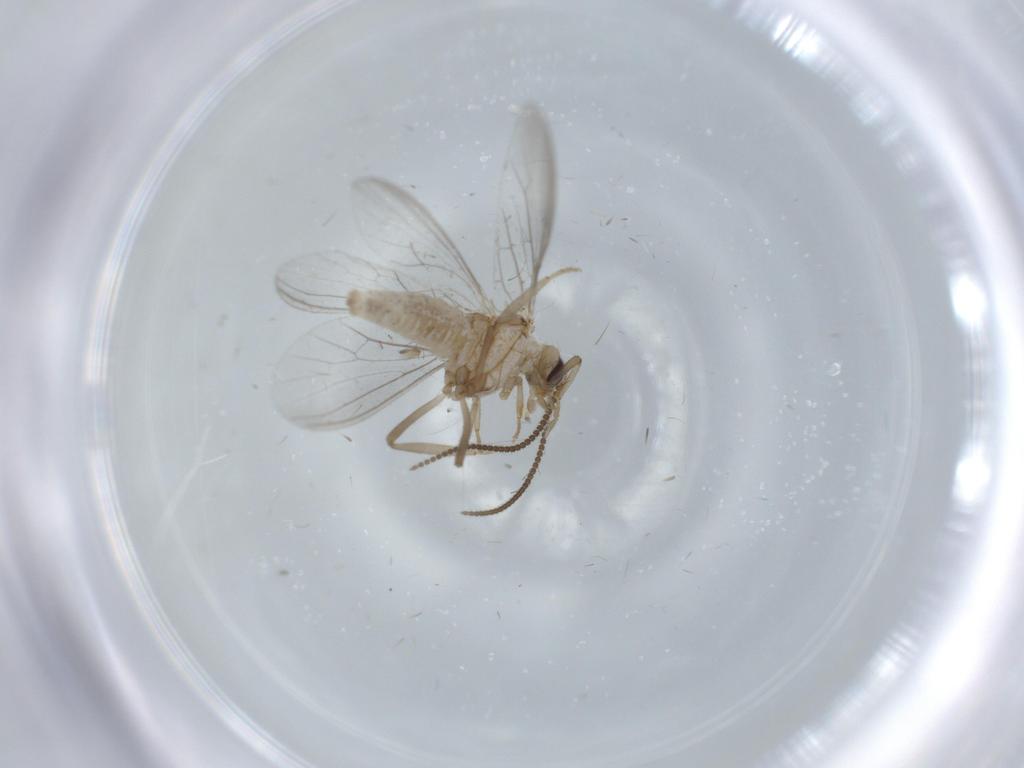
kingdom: Animalia
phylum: Arthropoda
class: Insecta
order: Neuroptera
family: Coniopterygidae
